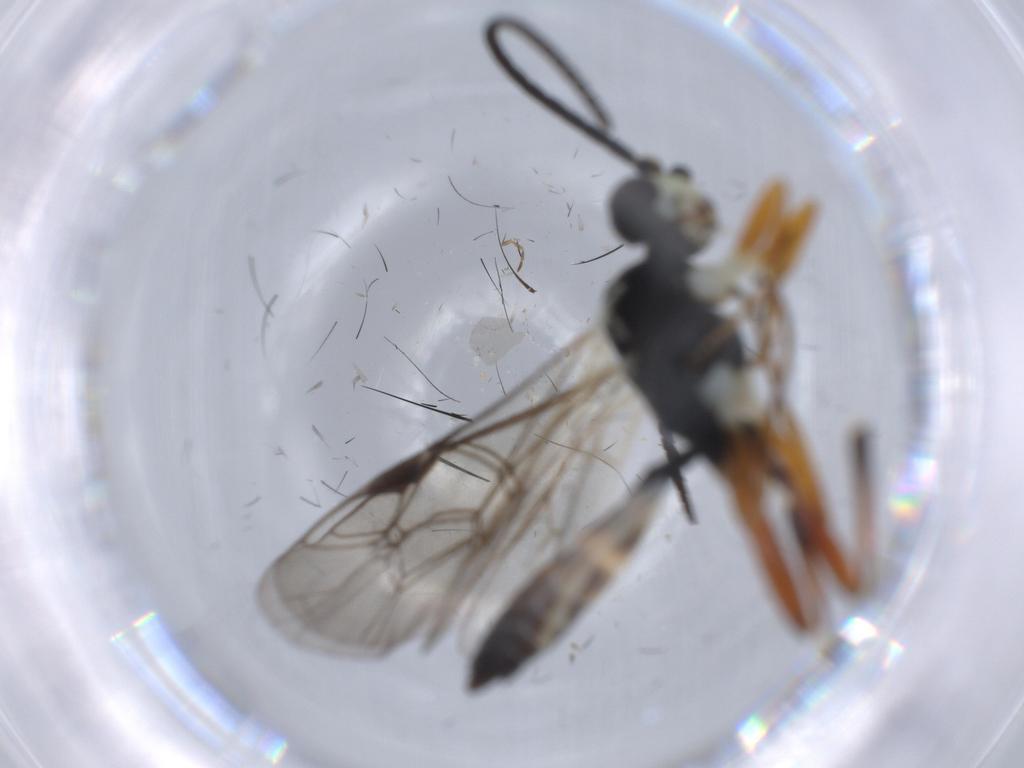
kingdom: Animalia
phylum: Arthropoda
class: Insecta
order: Hymenoptera
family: Ichneumonidae
